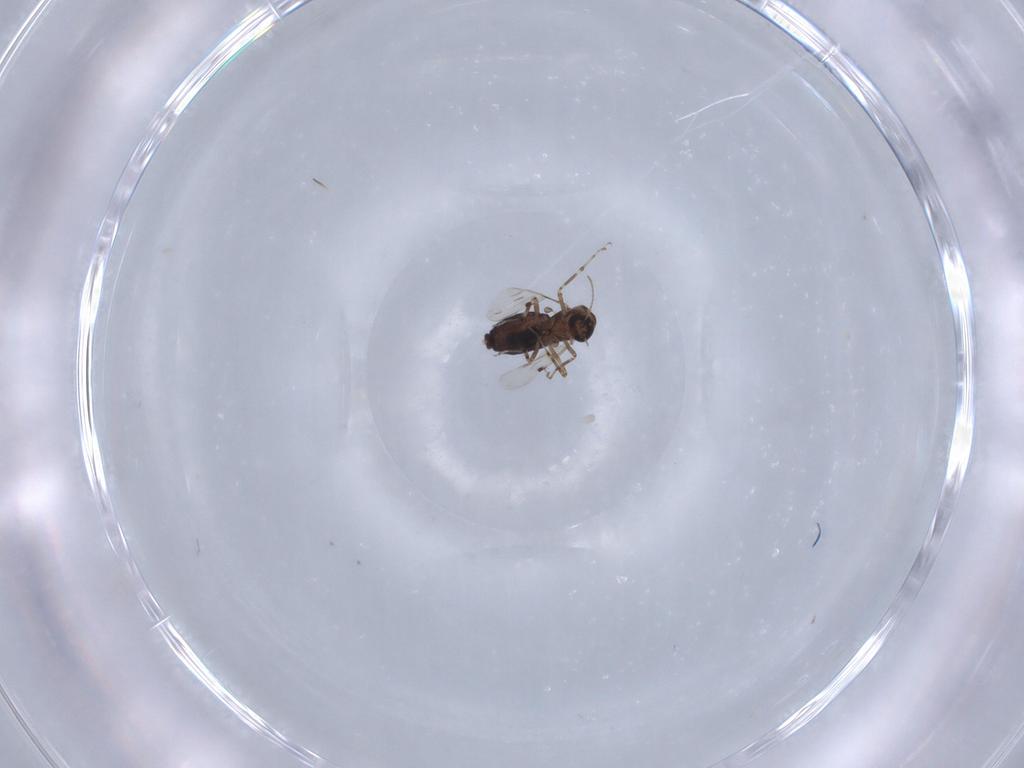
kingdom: Animalia
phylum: Arthropoda
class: Insecta
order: Diptera
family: Ceratopogonidae
